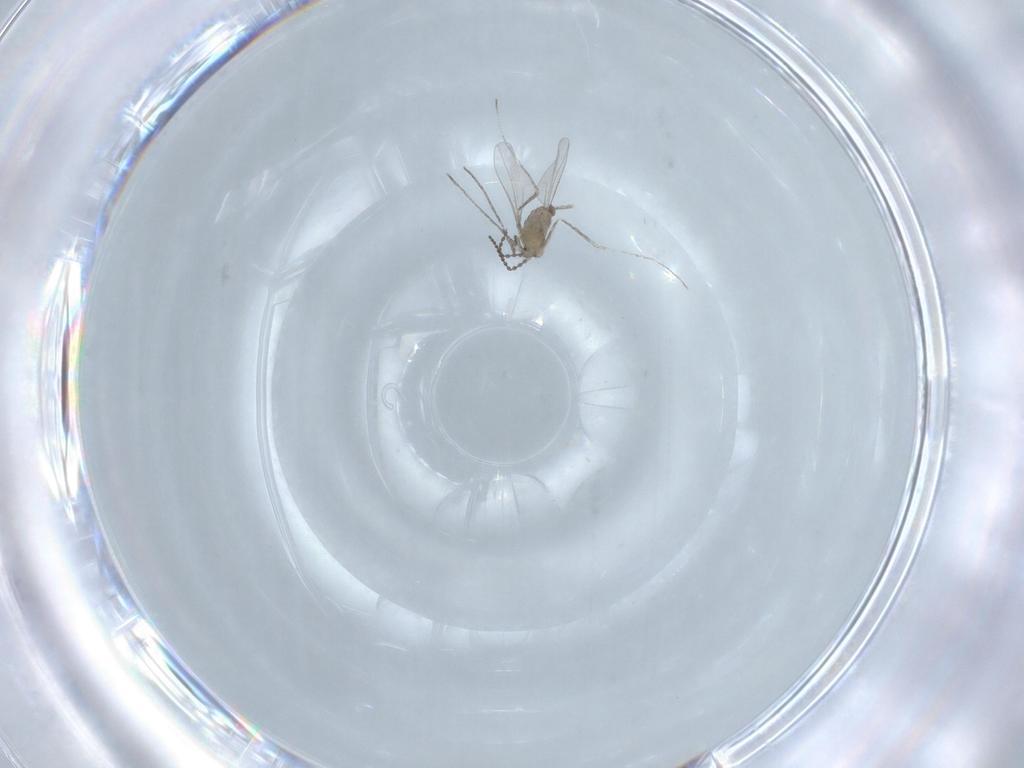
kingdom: Animalia
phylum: Arthropoda
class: Insecta
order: Diptera
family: Cecidomyiidae
